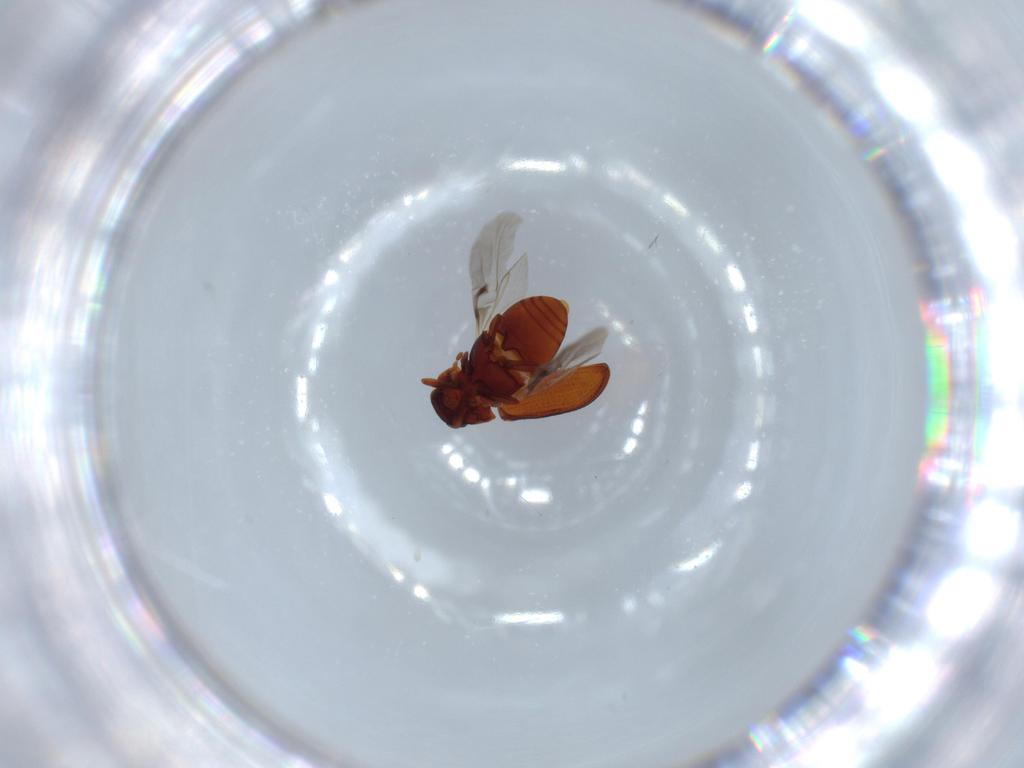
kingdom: Animalia
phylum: Arthropoda
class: Insecta
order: Coleoptera
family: Ptinidae
